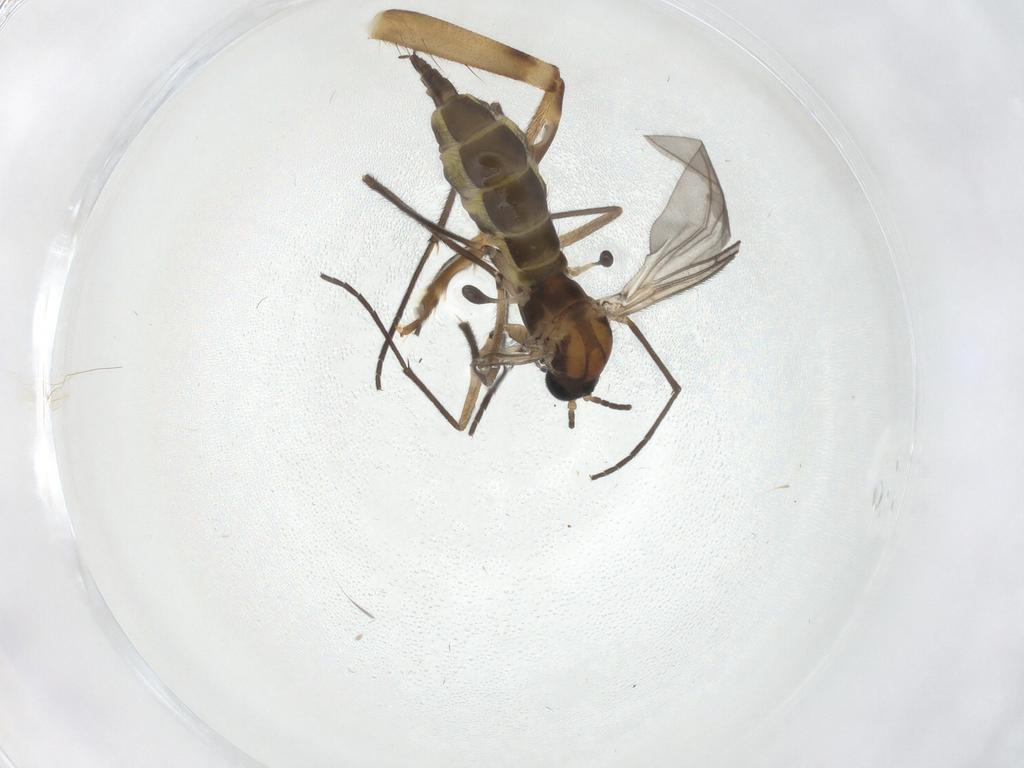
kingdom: Animalia
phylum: Arthropoda
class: Insecta
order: Diptera
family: Sciaridae
